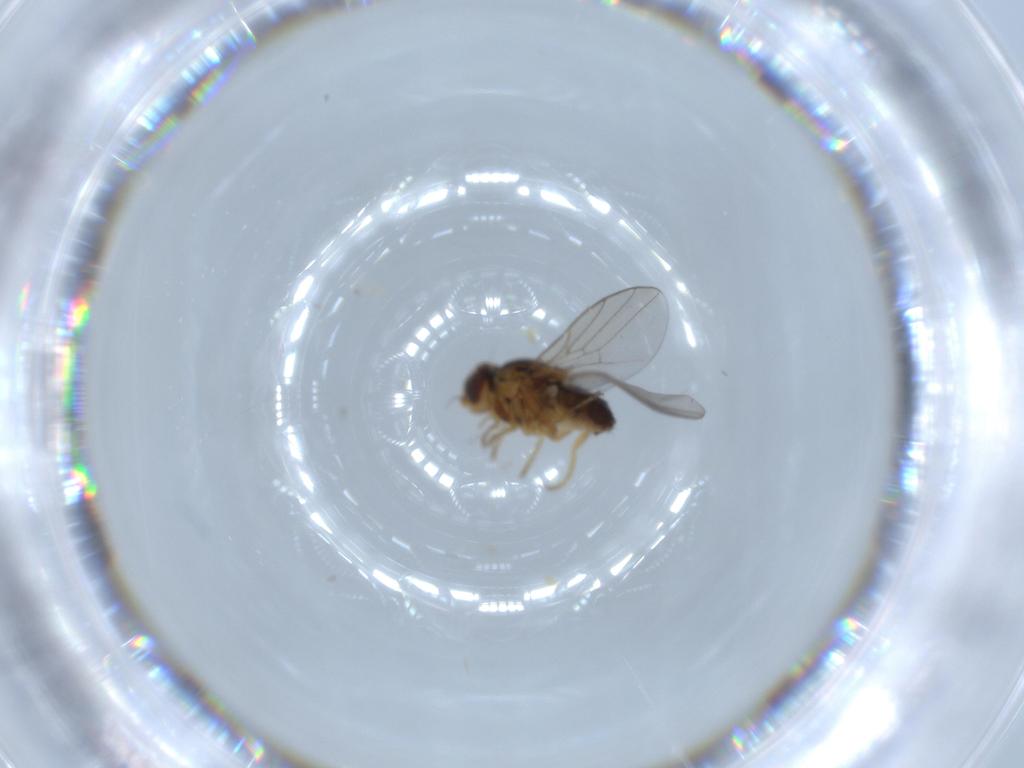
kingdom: Animalia
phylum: Arthropoda
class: Insecta
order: Diptera
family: Chloropidae
